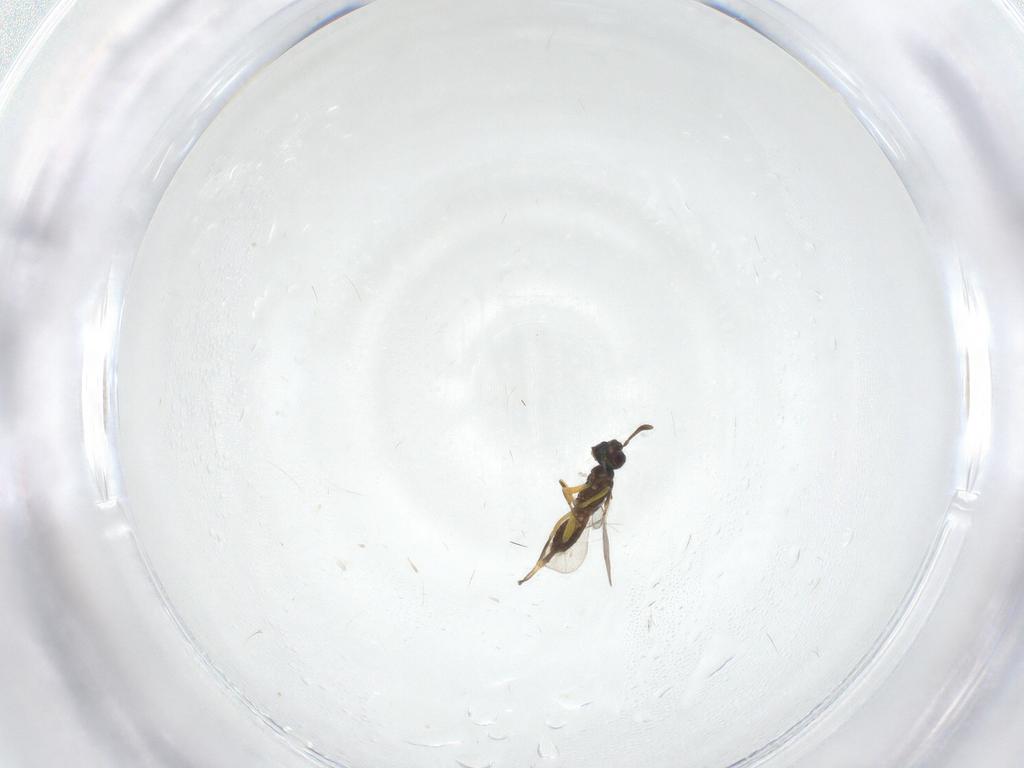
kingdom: Animalia
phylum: Arthropoda
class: Insecta
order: Hymenoptera
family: Eupelmidae
